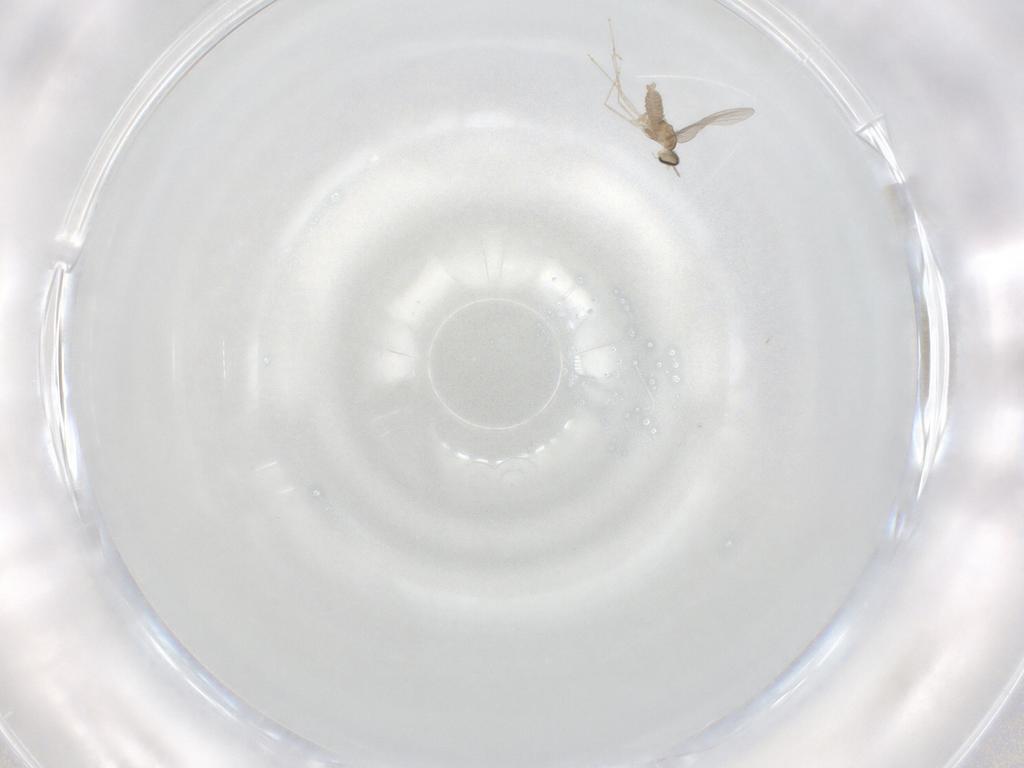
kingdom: Animalia
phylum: Arthropoda
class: Insecta
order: Diptera
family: Cecidomyiidae
